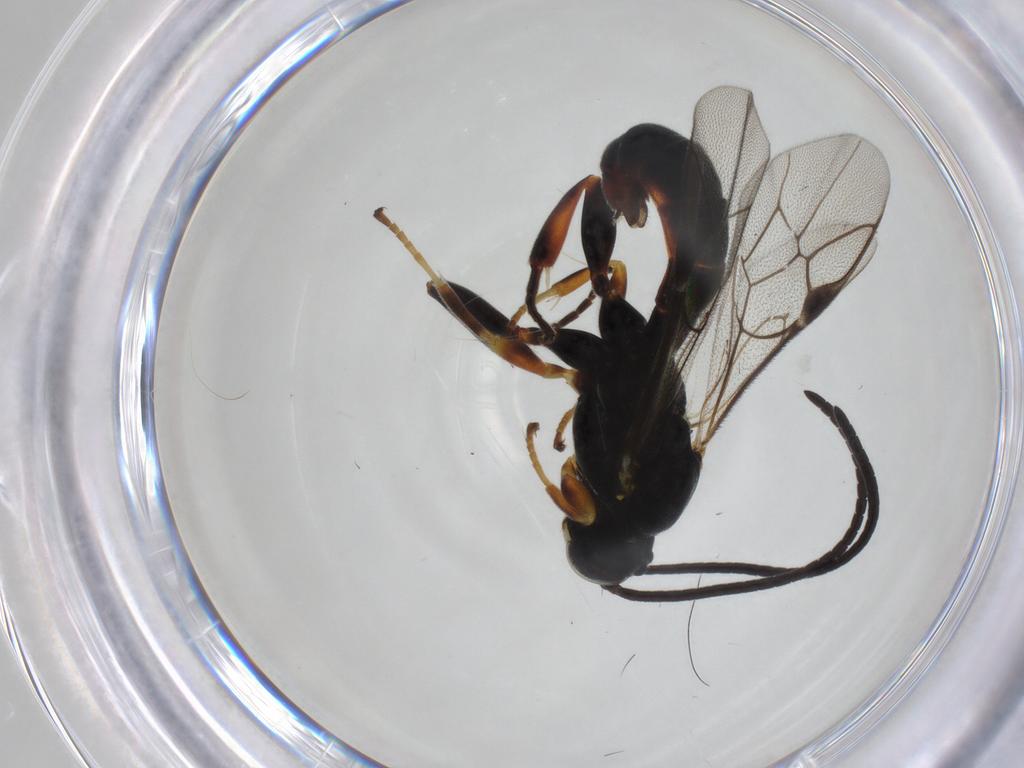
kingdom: Animalia
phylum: Arthropoda
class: Insecta
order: Hymenoptera
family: Ichneumonidae
